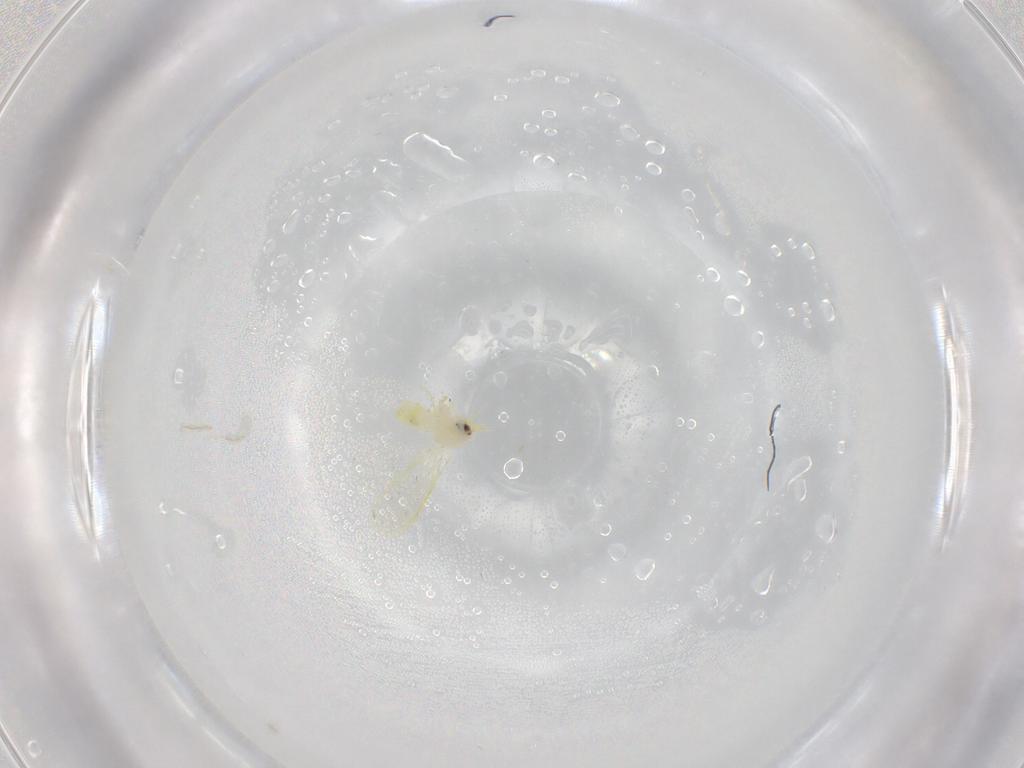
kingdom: Animalia
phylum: Arthropoda
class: Insecta
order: Hemiptera
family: Aleyrodidae
